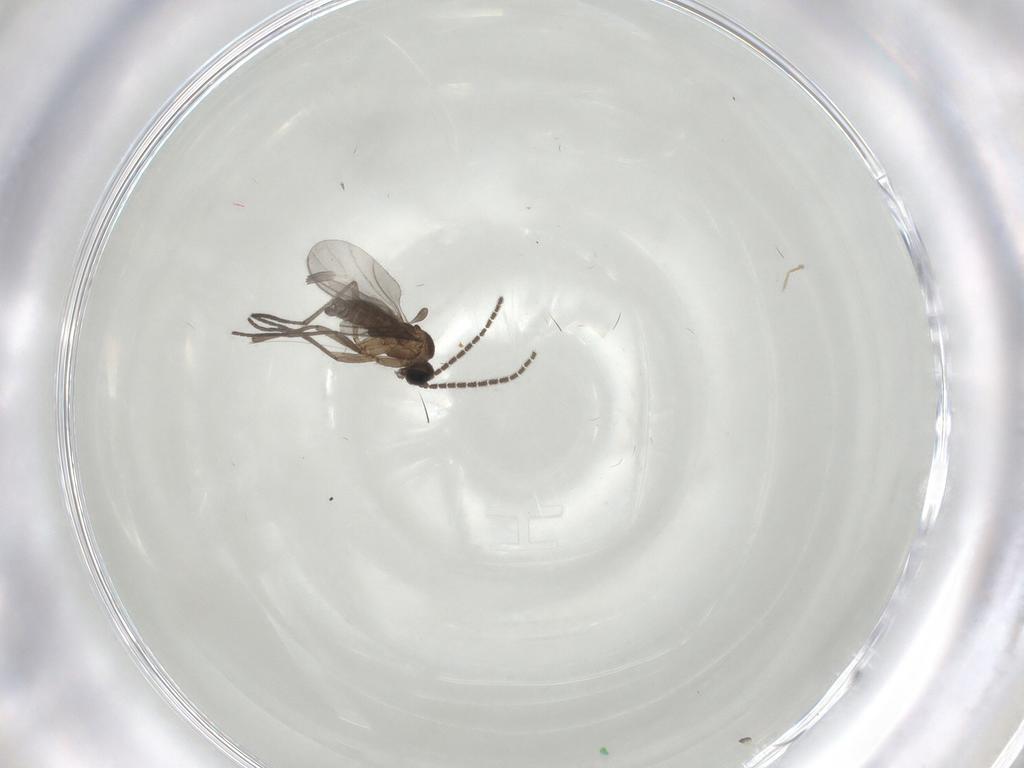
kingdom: Animalia
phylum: Arthropoda
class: Insecta
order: Diptera
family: Sciaridae
